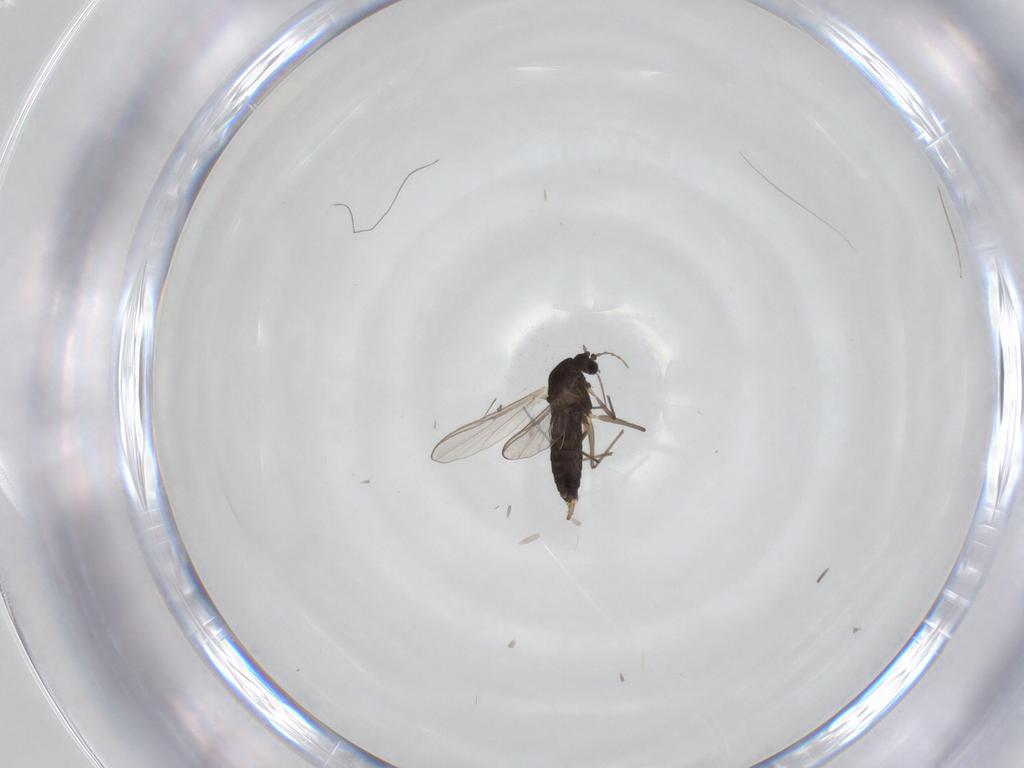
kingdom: Animalia
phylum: Arthropoda
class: Insecta
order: Diptera
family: Chironomidae
